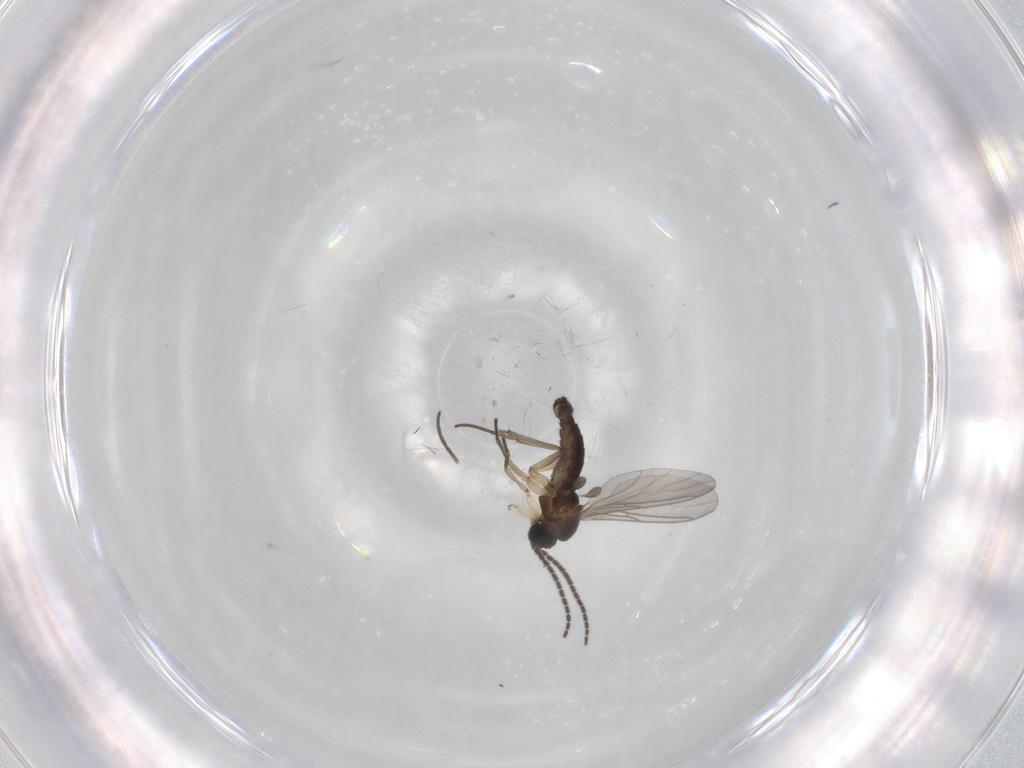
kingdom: Animalia
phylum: Arthropoda
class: Insecta
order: Diptera
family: Sciaridae
